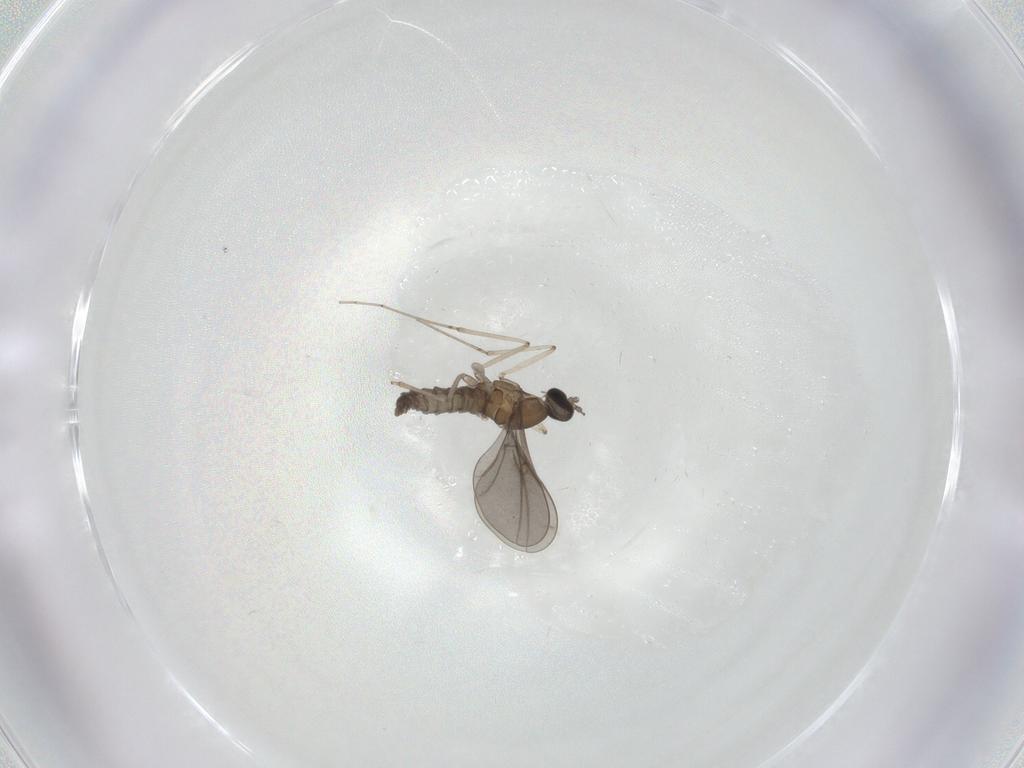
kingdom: Animalia
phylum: Arthropoda
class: Insecta
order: Diptera
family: Cecidomyiidae
